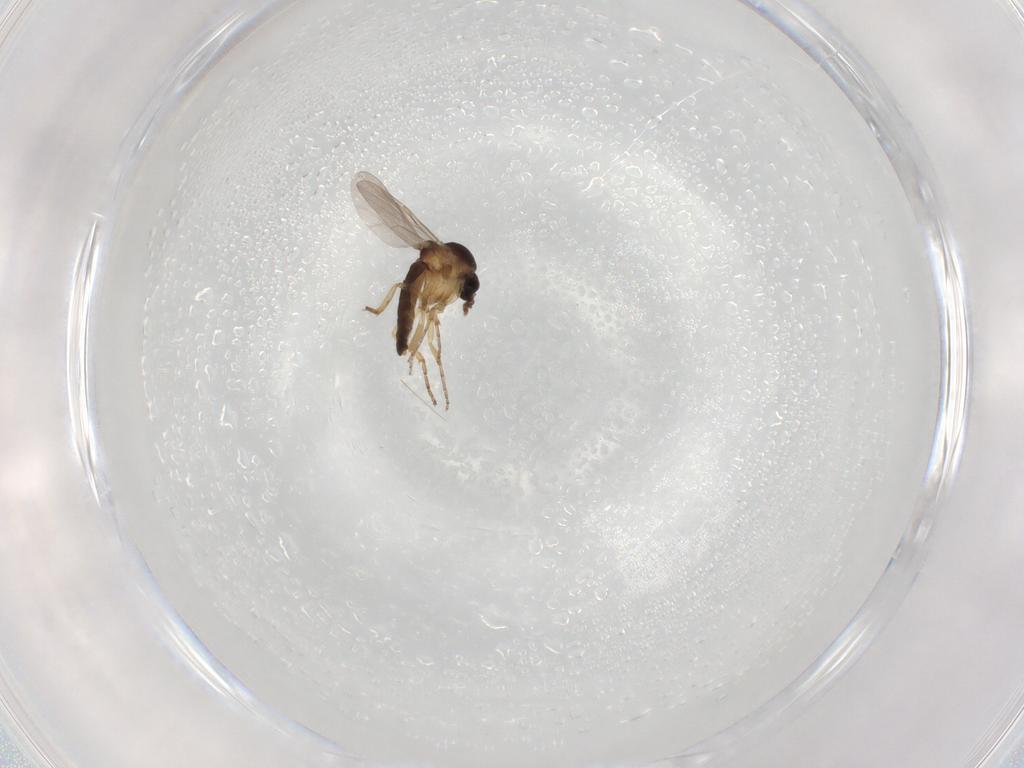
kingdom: Animalia
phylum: Arthropoda
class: Insecta
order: Diptera
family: Ceratopogonidae
